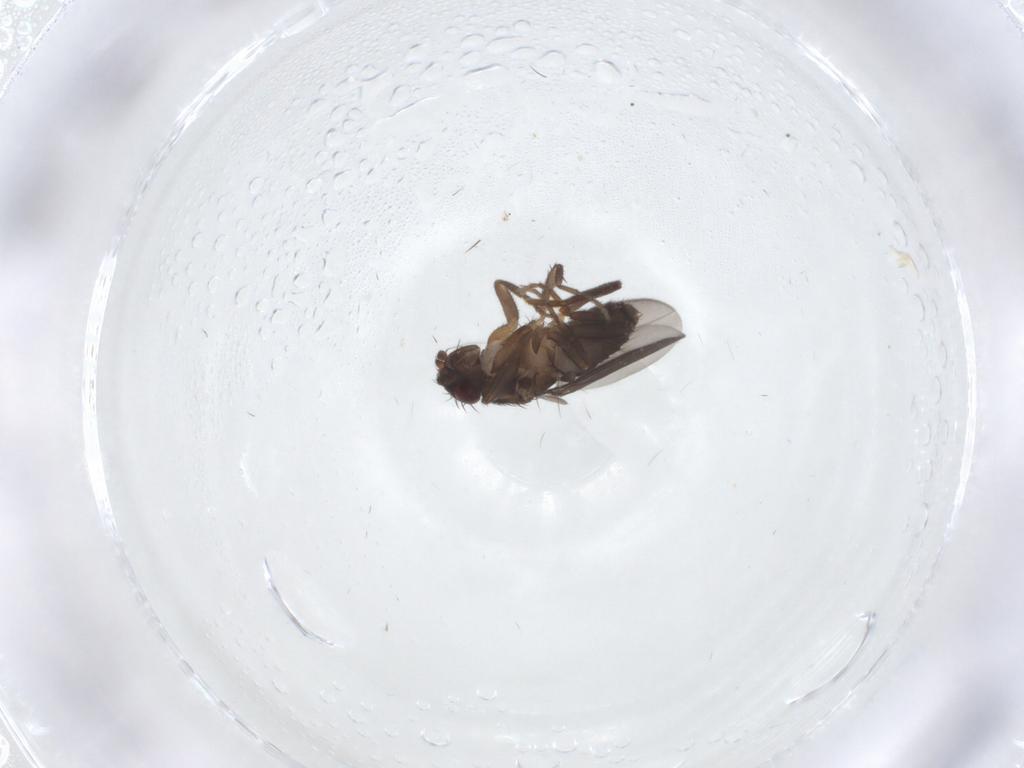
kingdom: Animalia
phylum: Arthropoda
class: Insecta
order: Diptera
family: Sphaeroceridae
